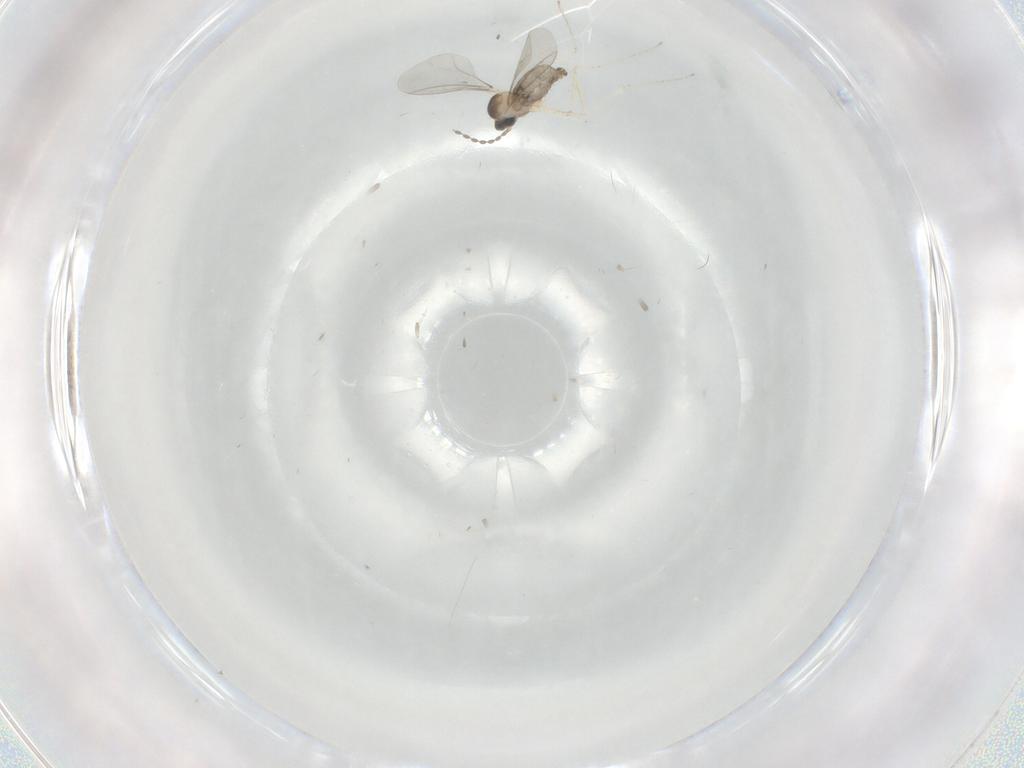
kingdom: Animalia
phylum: Arthropoda
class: Insecta
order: Diptera
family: Cecidomyiidae
